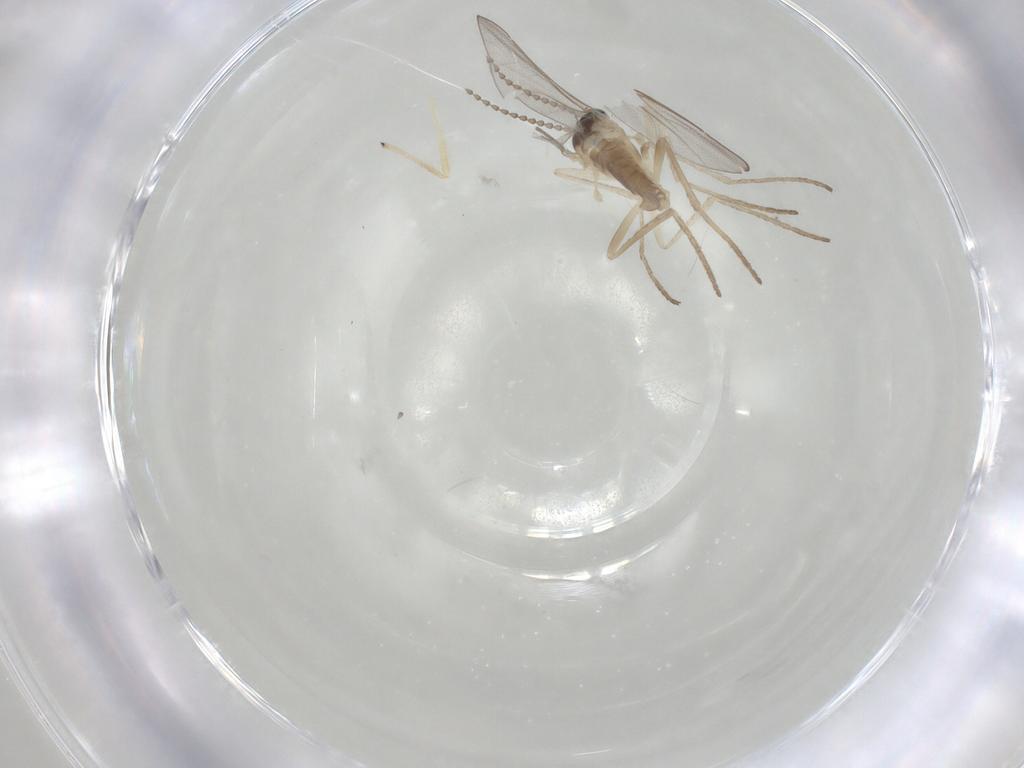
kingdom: Animalia
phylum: Arthropoda
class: Insecta
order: Diptera
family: Cecidomyiidae
